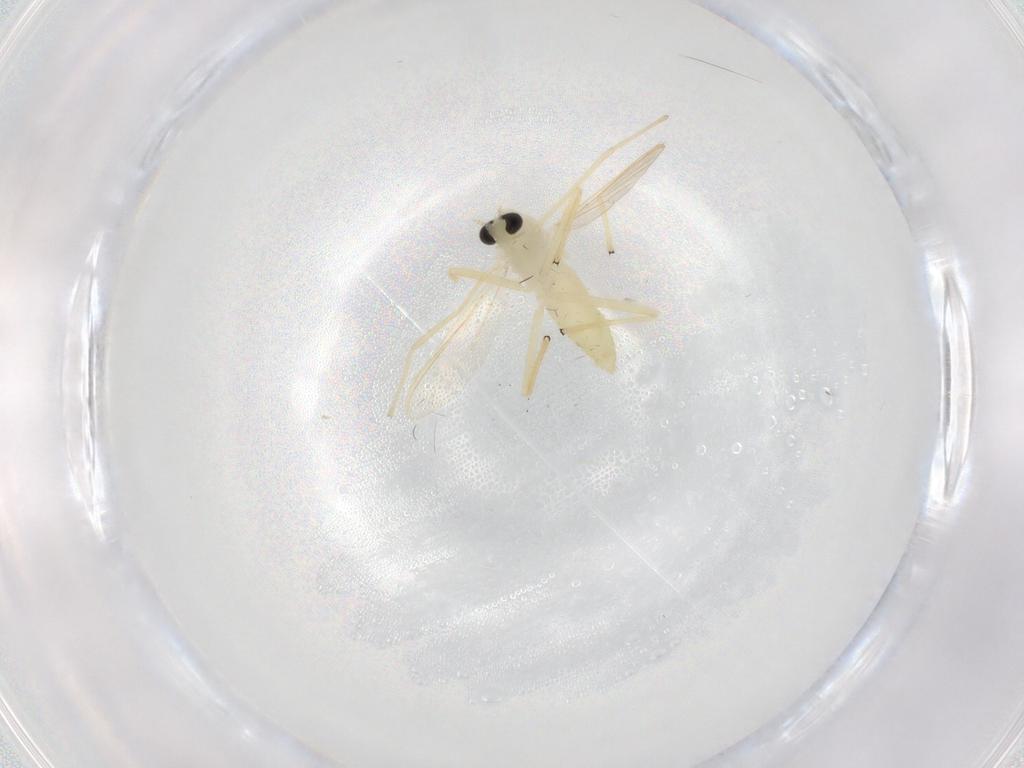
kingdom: Animalia
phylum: Arthropoda
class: Insecta
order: Diptera
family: Chironomidae
